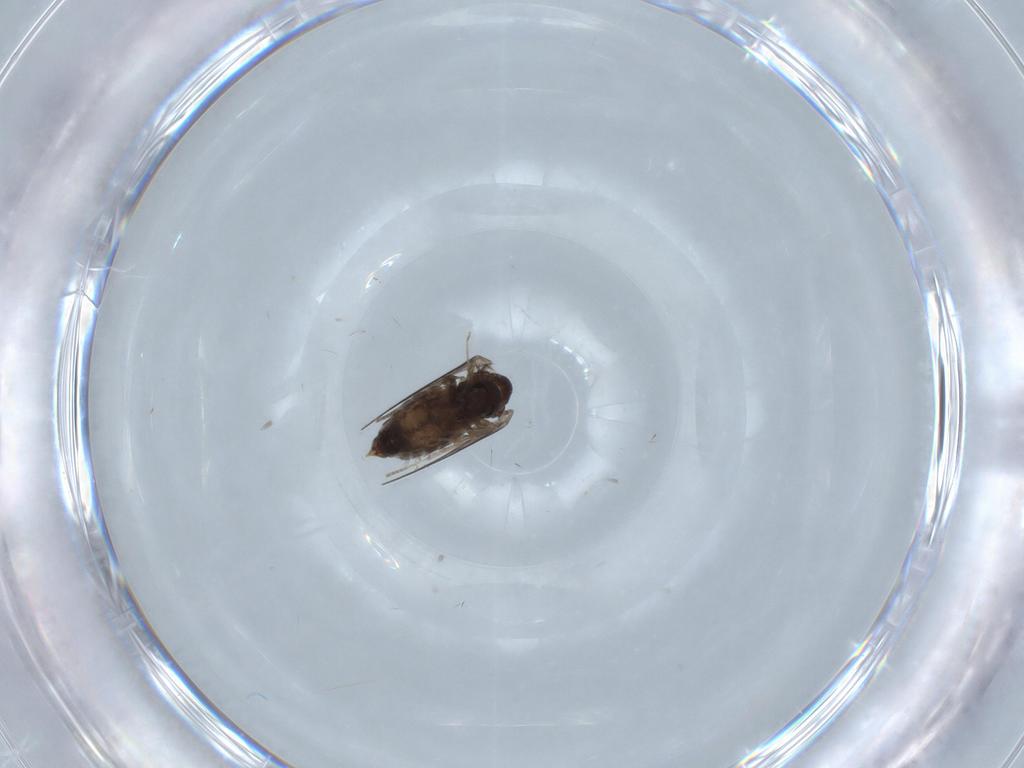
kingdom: Animalia
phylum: Arthropoda
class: Insecta
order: Diptera
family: Psychodidae
